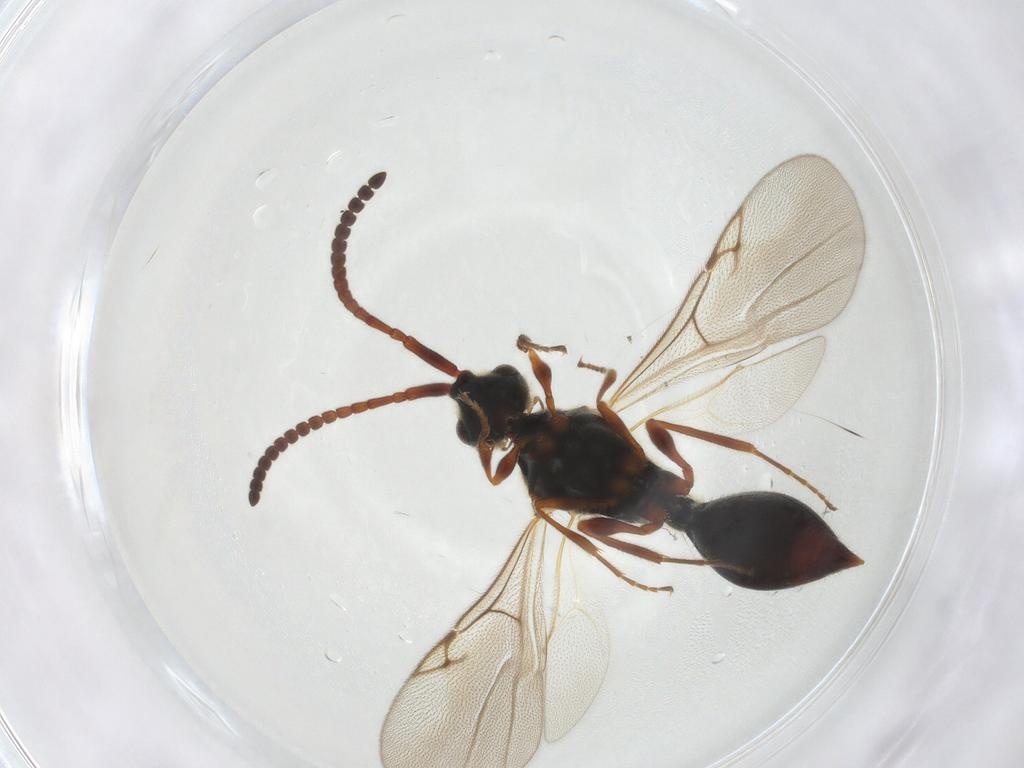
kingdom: Animalia
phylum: Arthropoda
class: Insecta
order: Hymenoptera
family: Diapriidae
